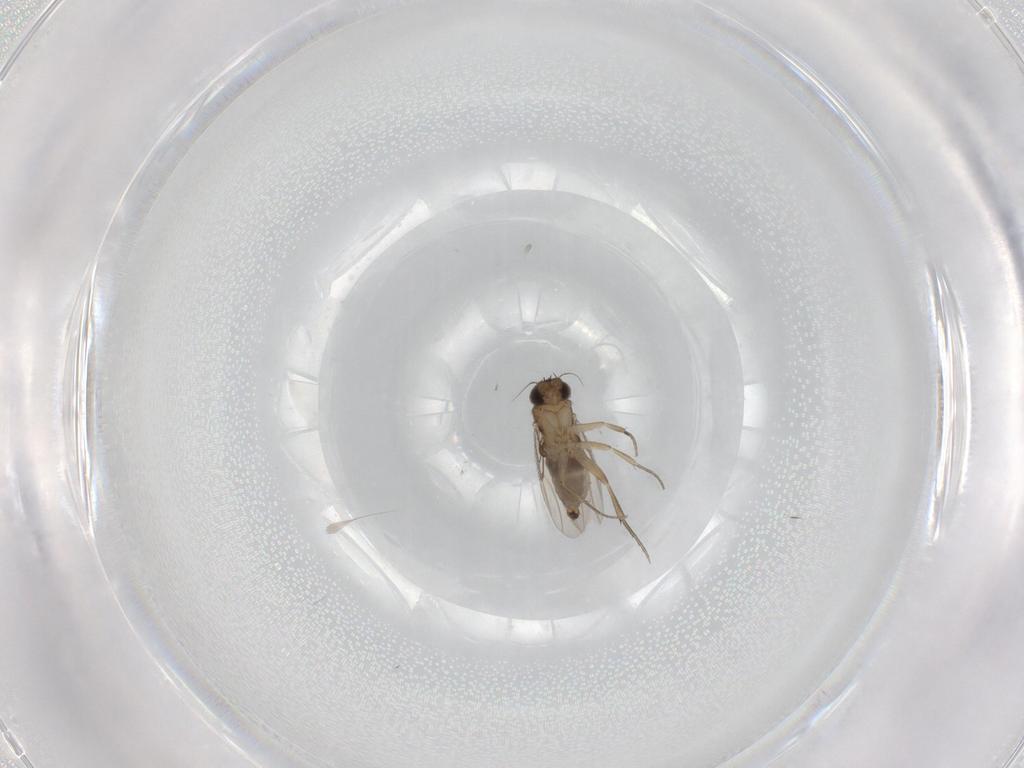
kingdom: Animalia
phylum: Arthropoda
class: Insecta
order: Diptera
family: Phoridae
